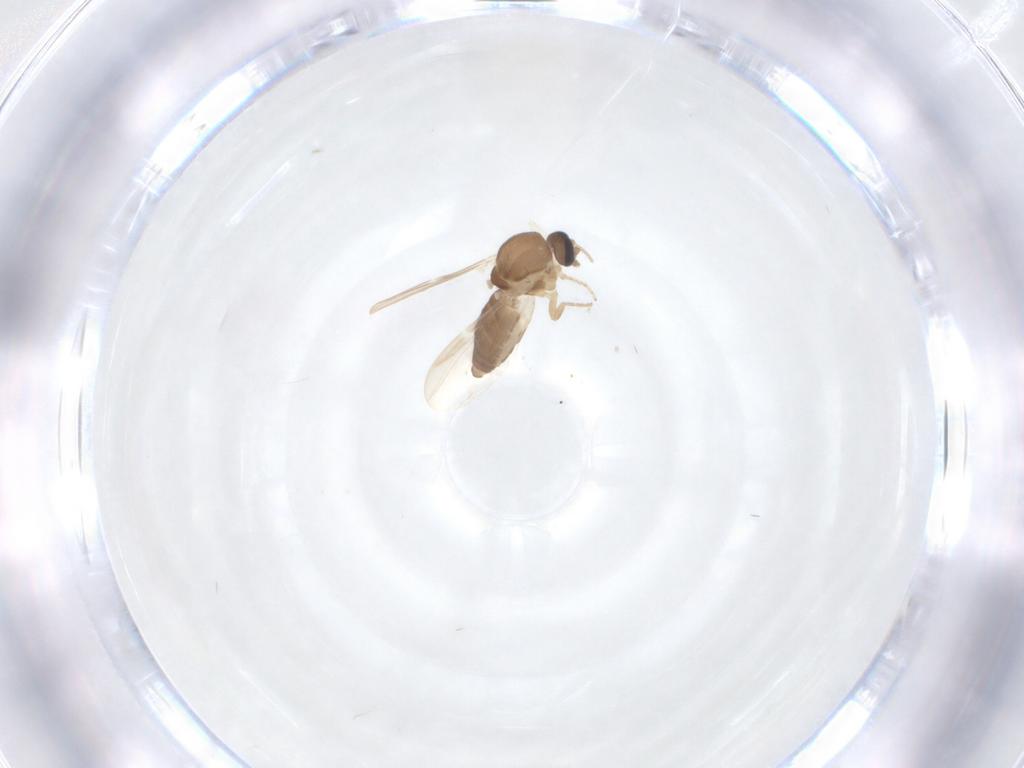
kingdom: Animalia
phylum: Arthropoda
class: Insecta
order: Diptera
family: Ceratopogonidae
